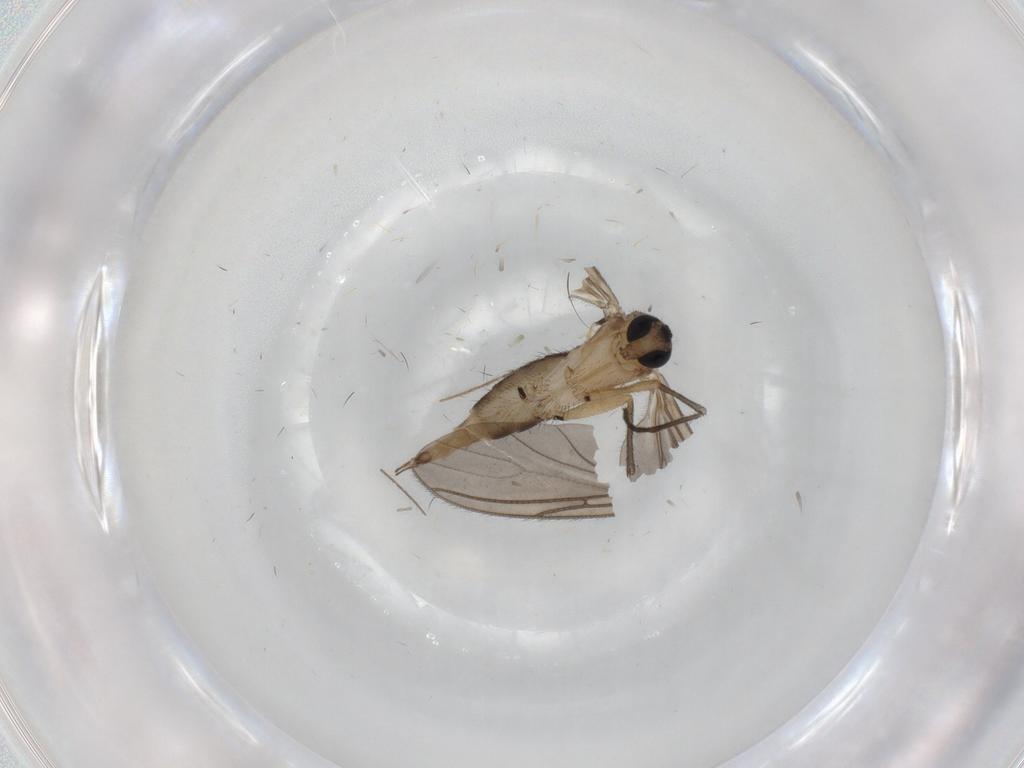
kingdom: Animalia
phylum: Arthropoda
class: Insecta
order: Diptera
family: Sciaridae
